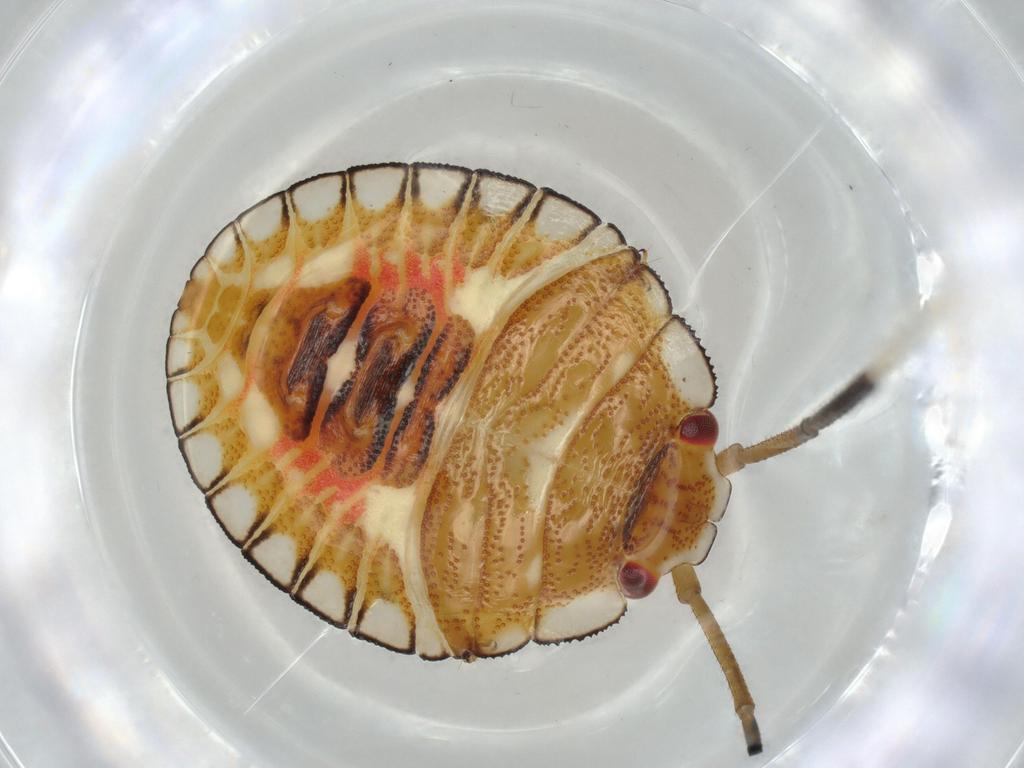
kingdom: Animalia
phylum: Arthropoda
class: Insecta
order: Hemiptera
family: Pentatomidae
